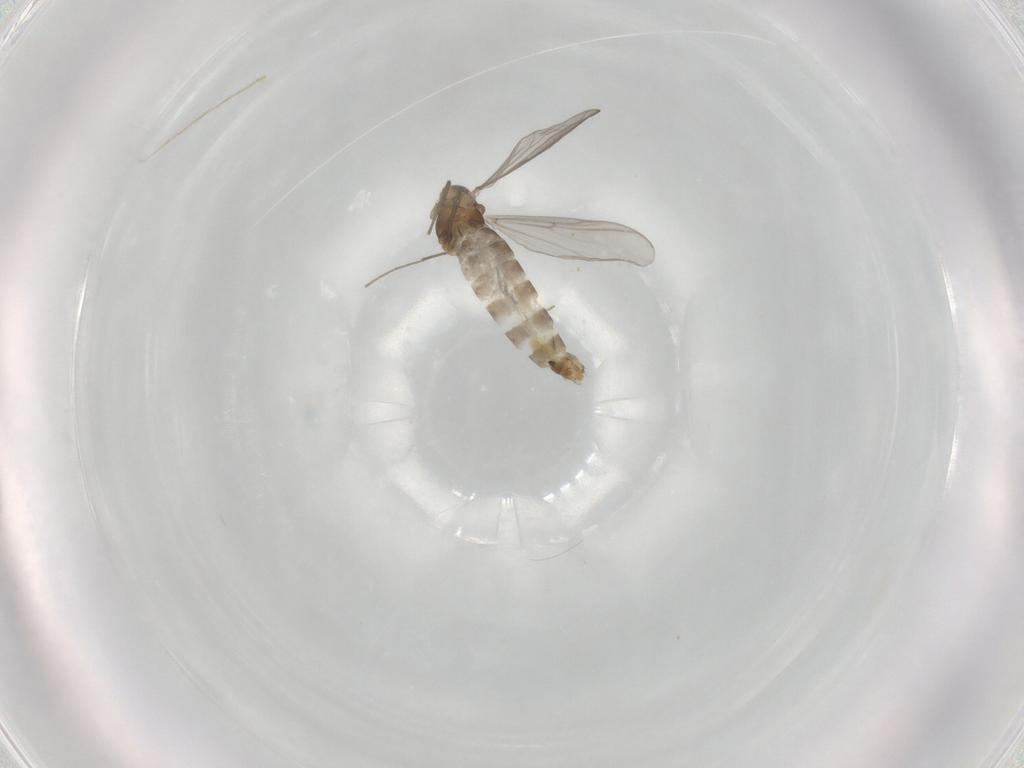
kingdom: Animalia
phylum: Arthropoda
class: Insecta
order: Diptera
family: Chironomidae
